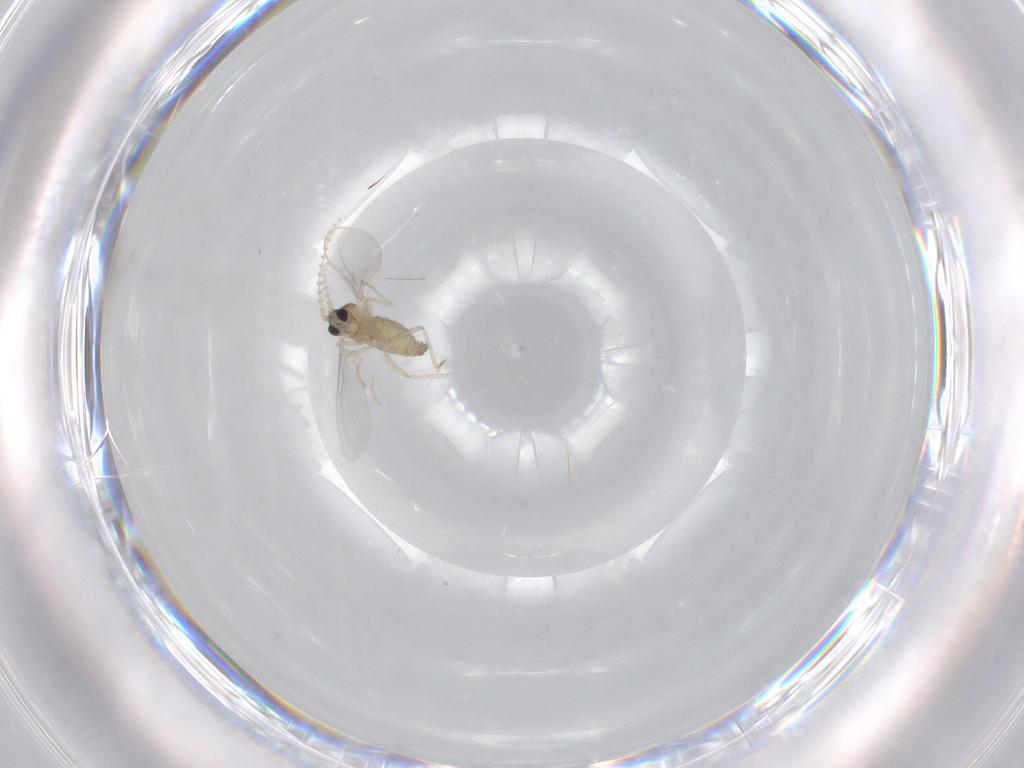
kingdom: Animalia
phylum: Arthropoda
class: Insecta
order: Diptera
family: Cecidomyiidae
